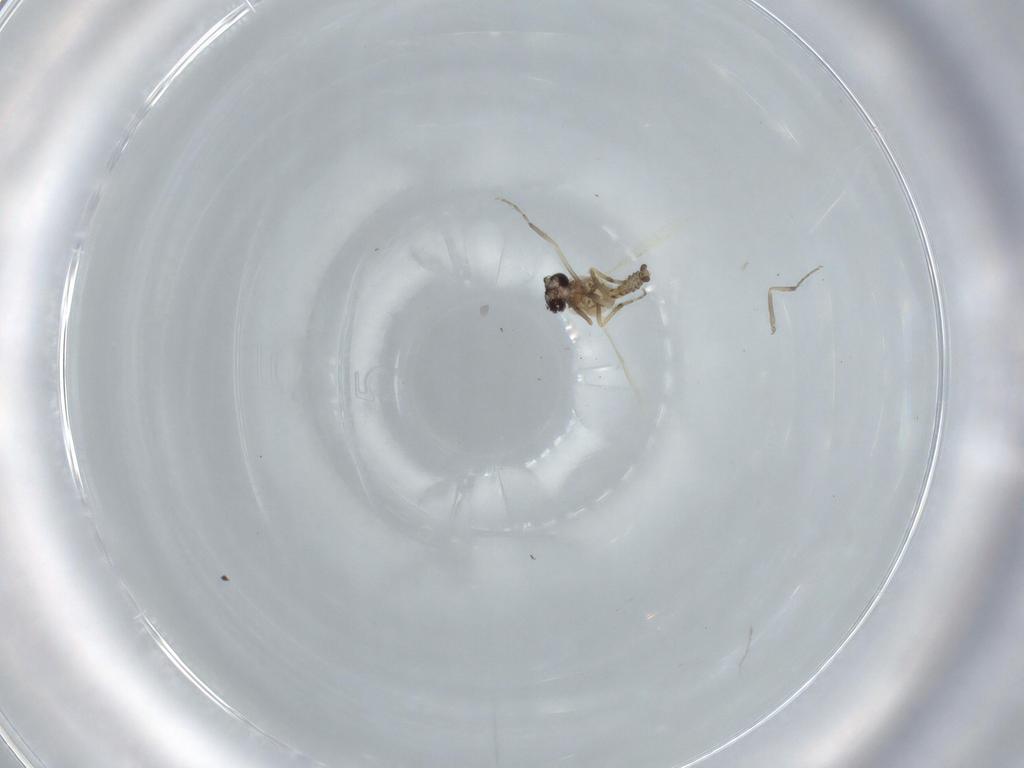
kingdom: Animalia
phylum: Arthropoda
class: Insecta
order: Diptera
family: Ceratopogonidae
